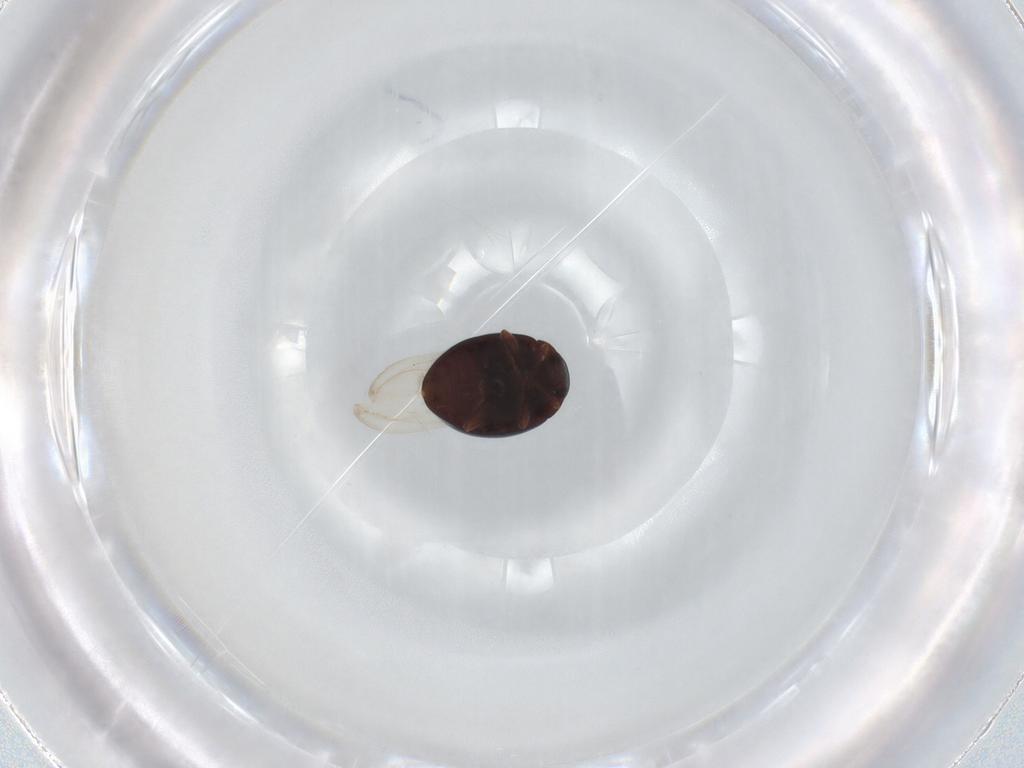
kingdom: Animalia
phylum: Arthropoda
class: Insecta
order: Coleoptera
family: Coccinellidae
